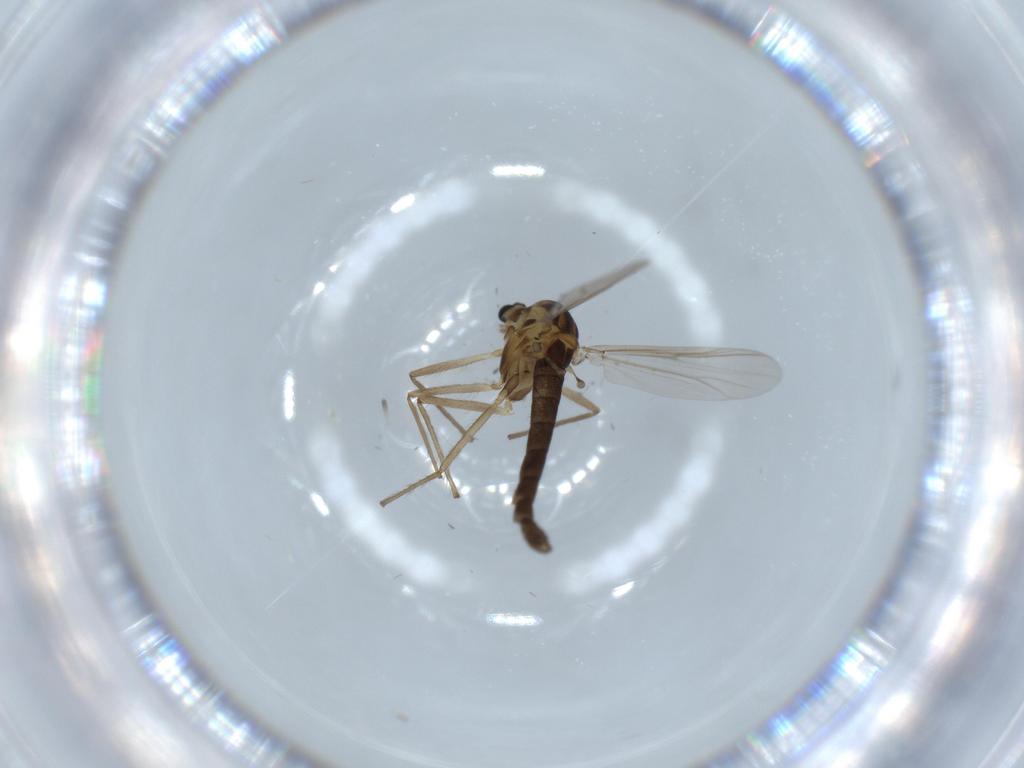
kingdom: Animalia
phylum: Arthropoda
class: Insecta
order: Diptera
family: Chironomidae
